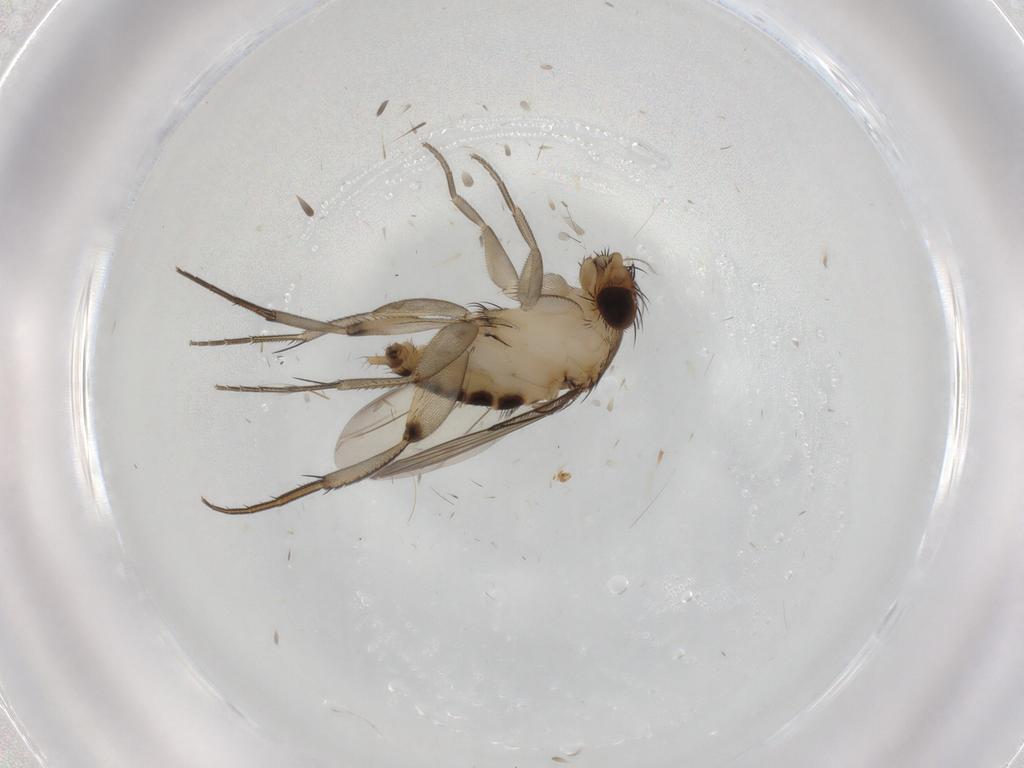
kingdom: Animalia
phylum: Arthropoda
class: Insecta
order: Diptera
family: Phoridae
